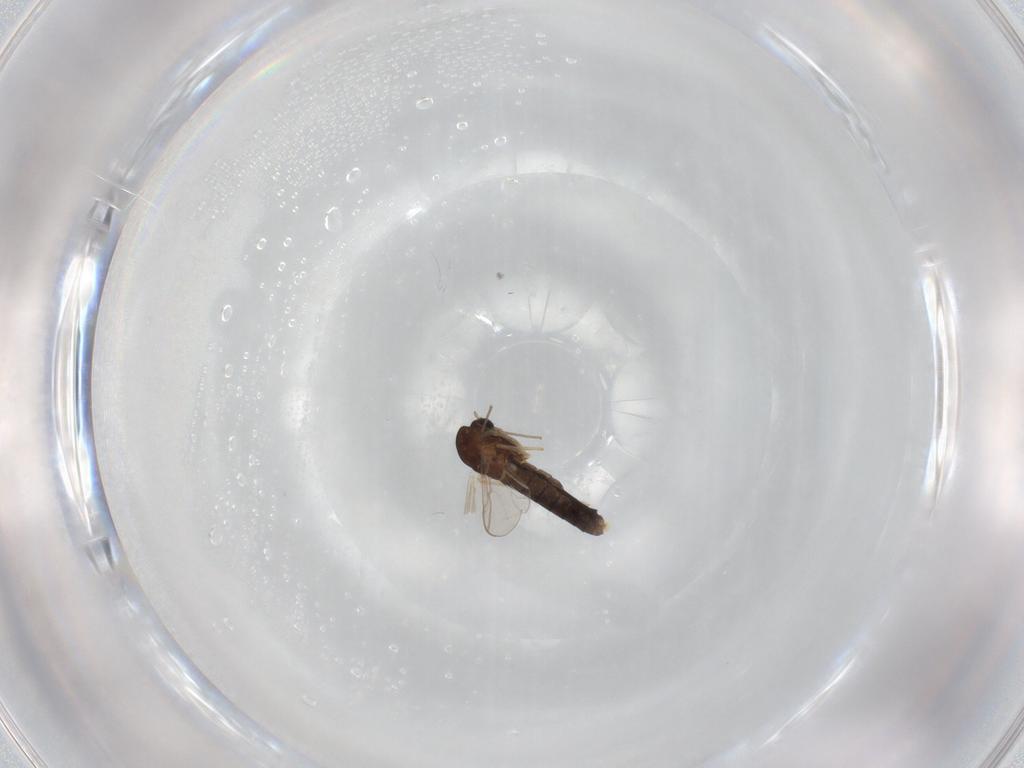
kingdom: Animalia
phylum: Arthropoda
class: Insecta
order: Diptera
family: Chironomidae
